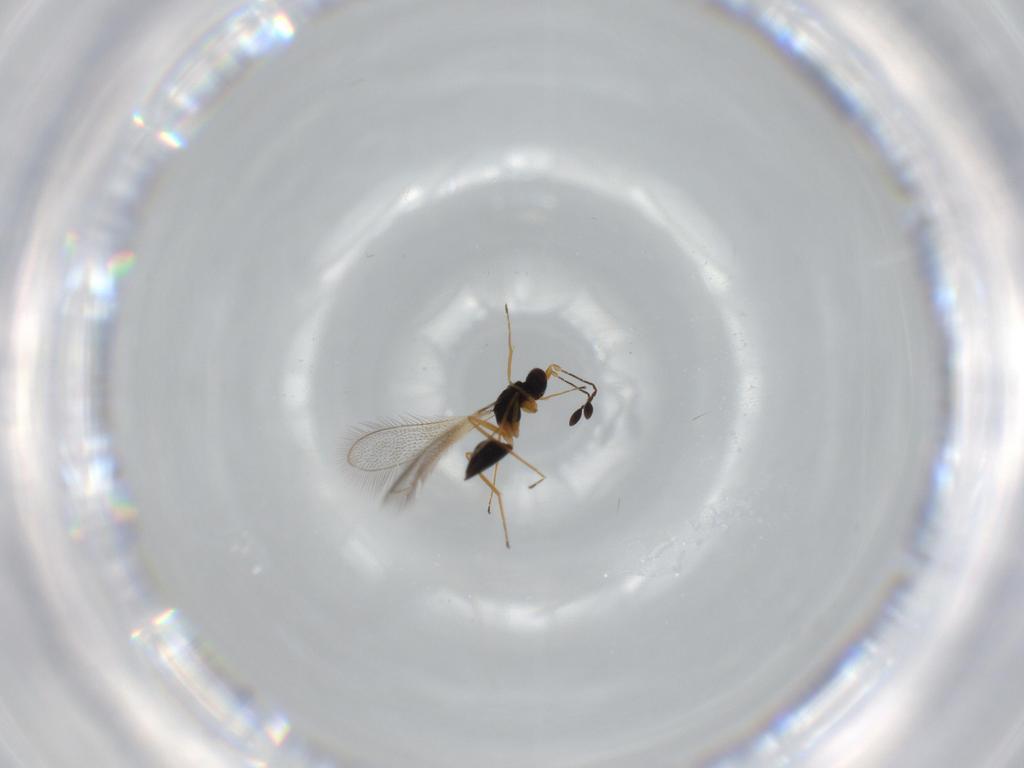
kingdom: Animalia
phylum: Arthropoda
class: Insecta
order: Hymenoptera
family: Mymaridae
